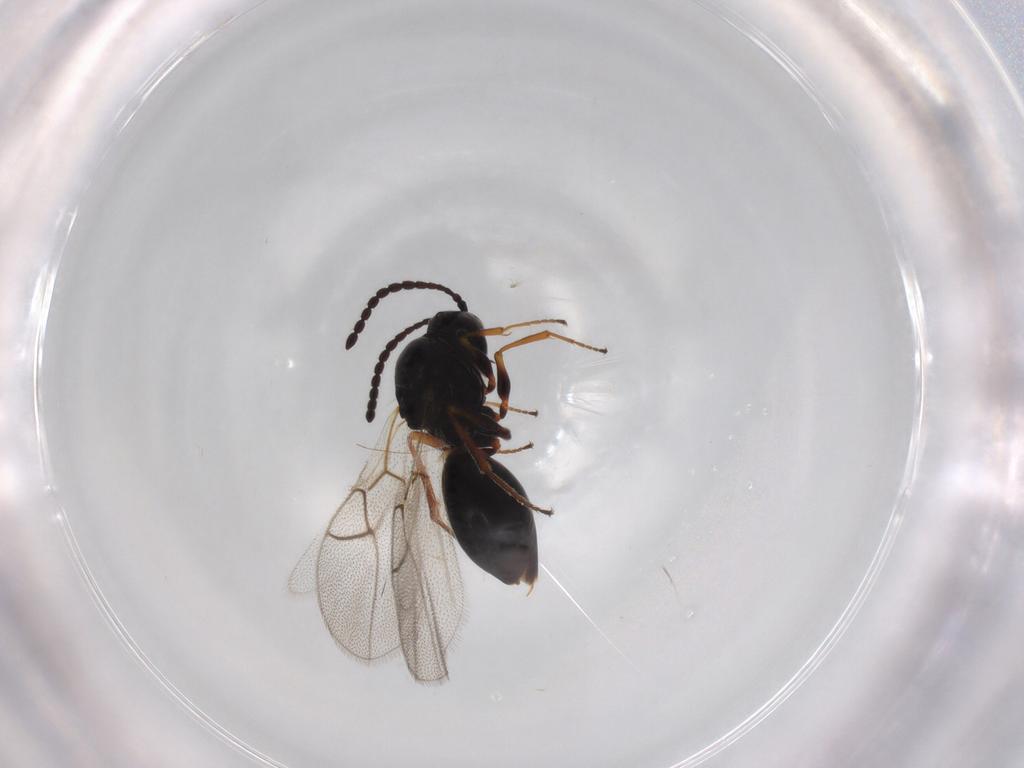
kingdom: Animalia
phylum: Arthropoda
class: Insecta
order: Hymenoptera
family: Figitidae
